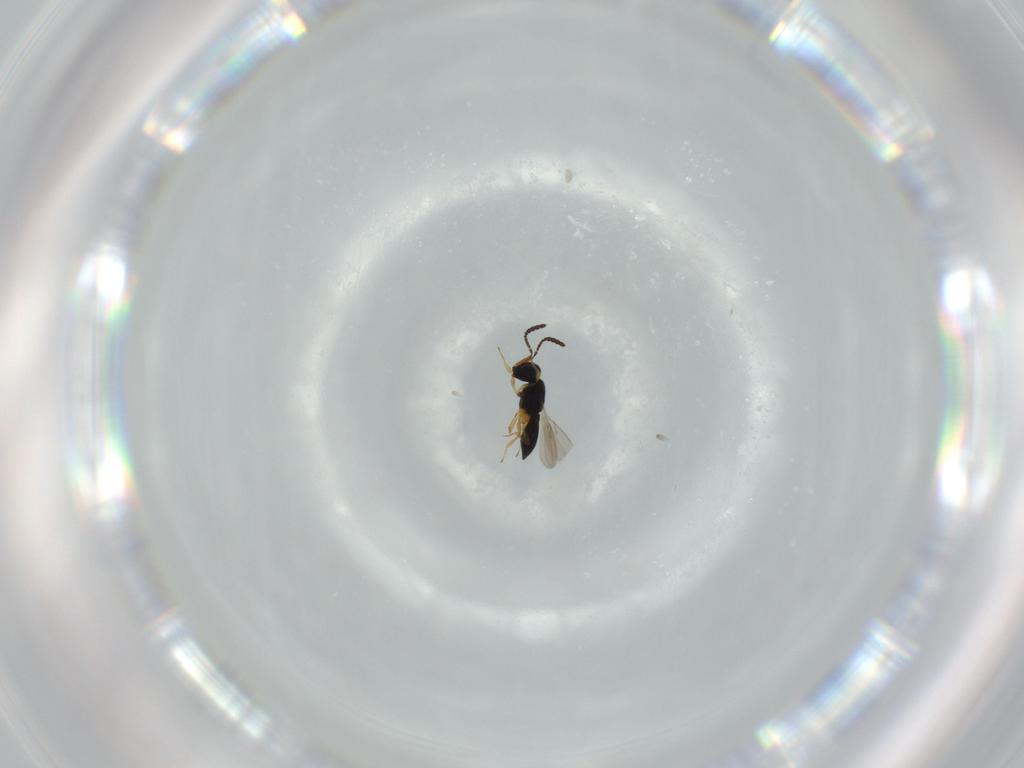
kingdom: Animalia
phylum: Arthropoda
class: Insecta
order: Hymenoptera
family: Scelionidae
